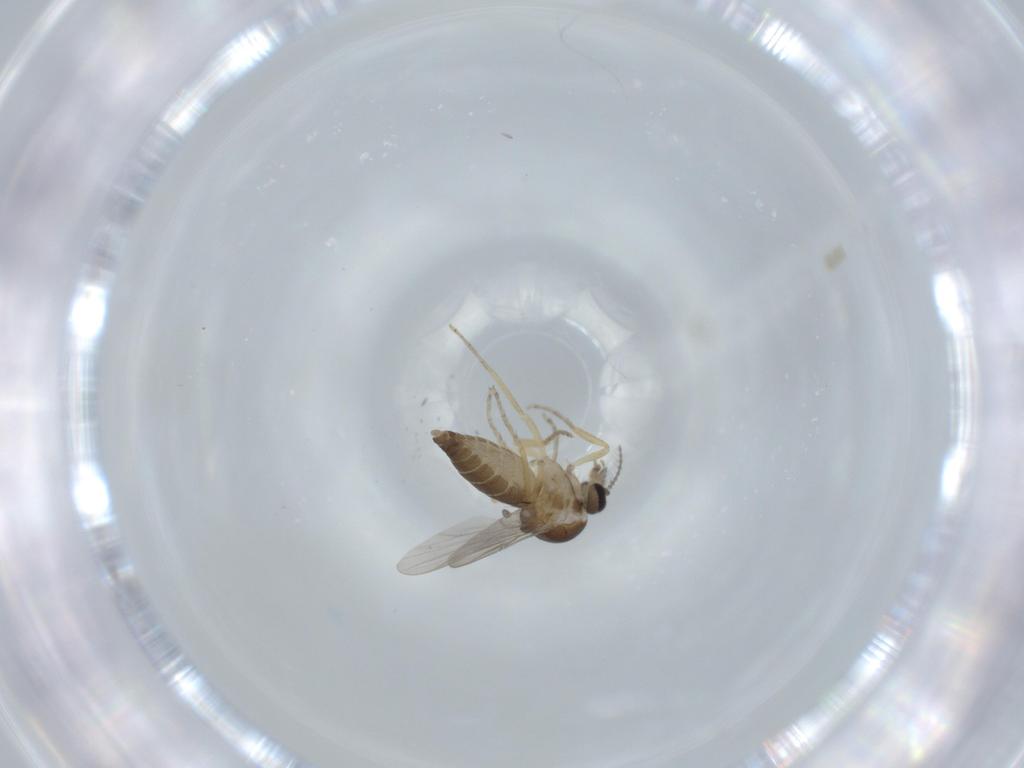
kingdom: Animalia
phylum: Arthropoda
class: Insecta
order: Diptera
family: Ceratopogonidae
